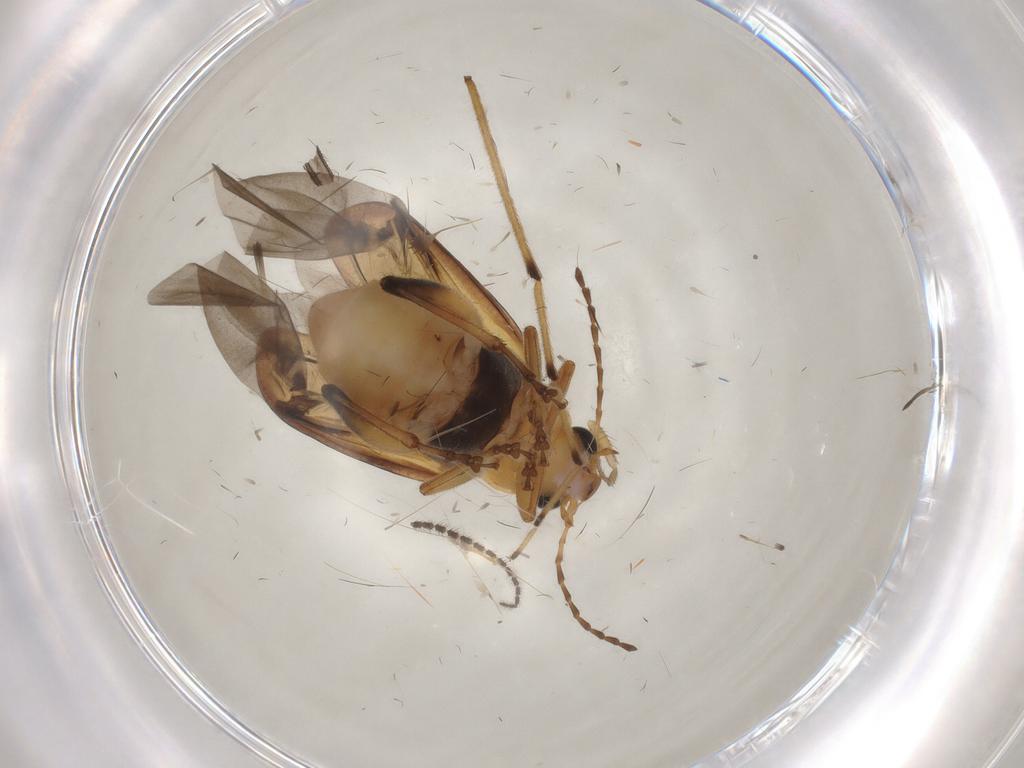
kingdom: Animalia
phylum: Arthropoda
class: Insecta
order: Coleoptera
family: Chrysomelidae
